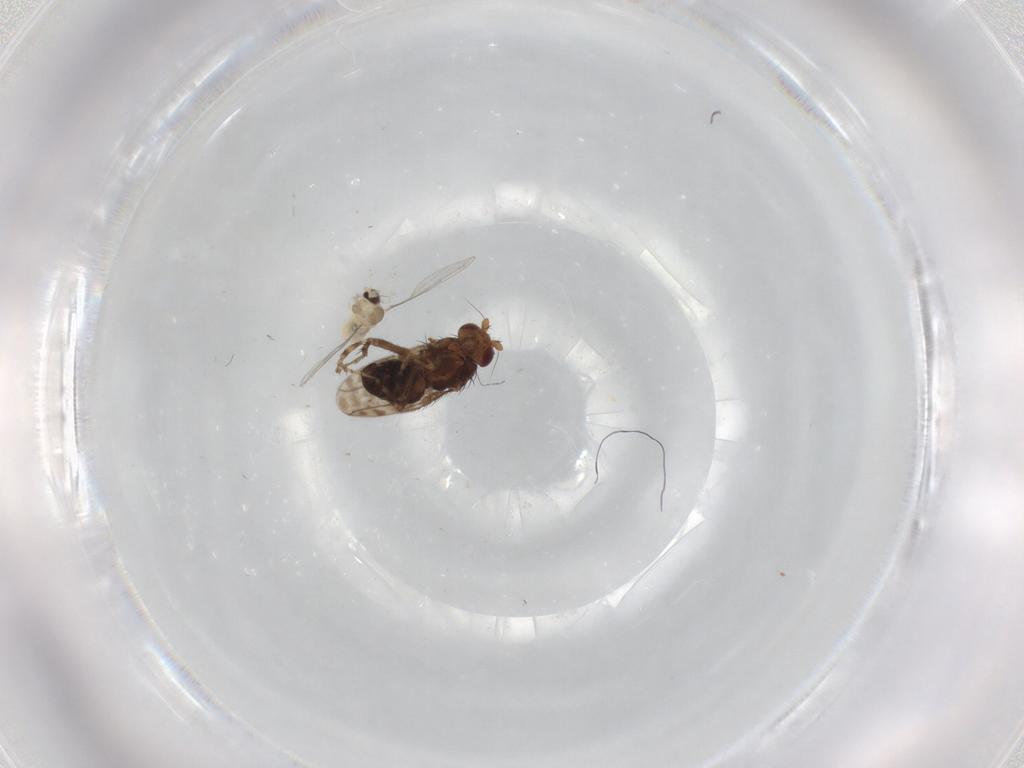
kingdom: Animalia
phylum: Arthropoda
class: Insecta
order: Diptera
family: Sphaeroceridae
